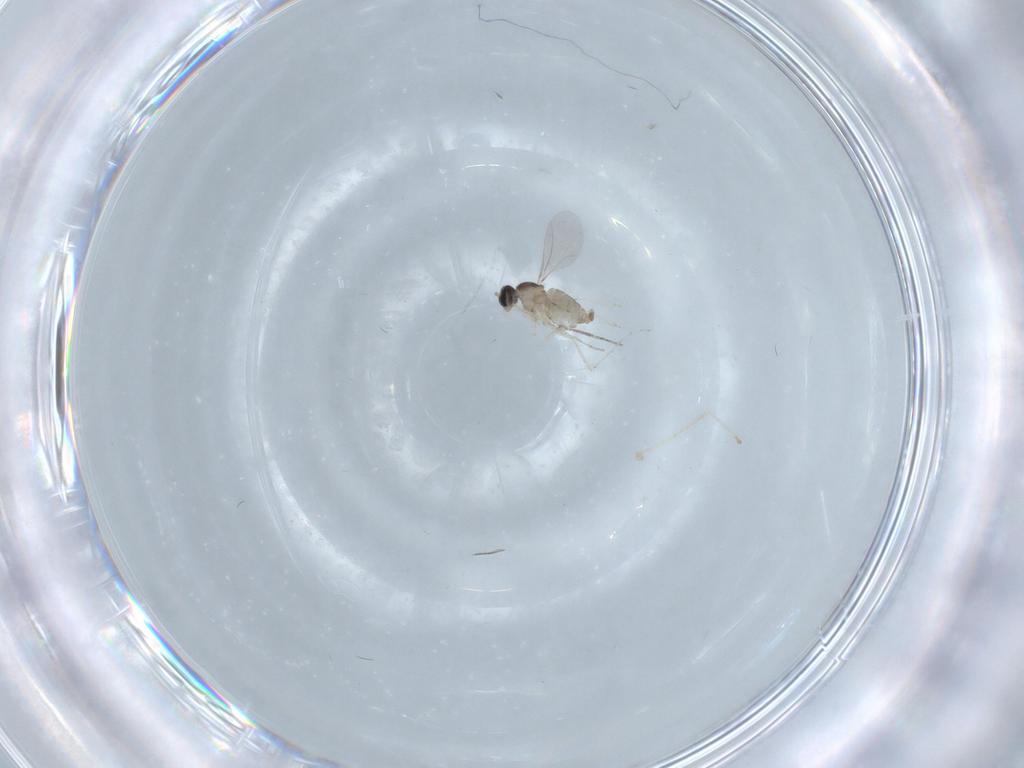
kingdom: Animalia
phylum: Arthropoda
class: Insecta
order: Diptera
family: Cecidomyiidae
